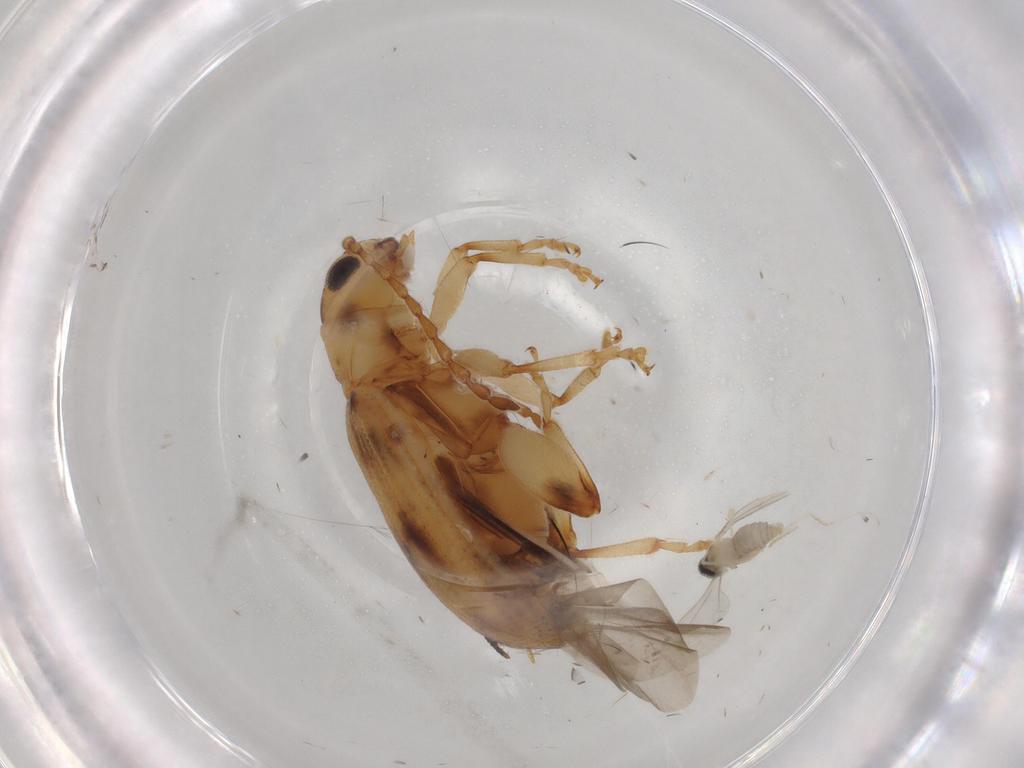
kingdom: Animalia
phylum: Arthropoda
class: Insecta
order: Coleoptera
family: Chrysomelidae
